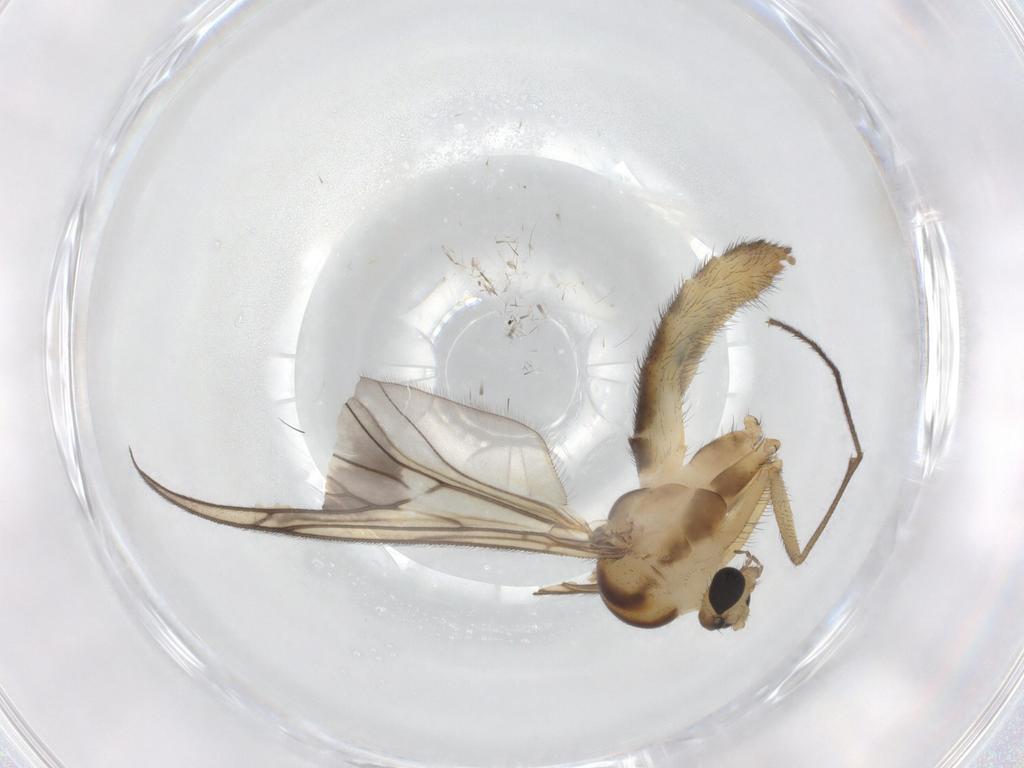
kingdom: Animalia
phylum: Arthropoda
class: Insecta
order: Diptera
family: Keroplatidae
